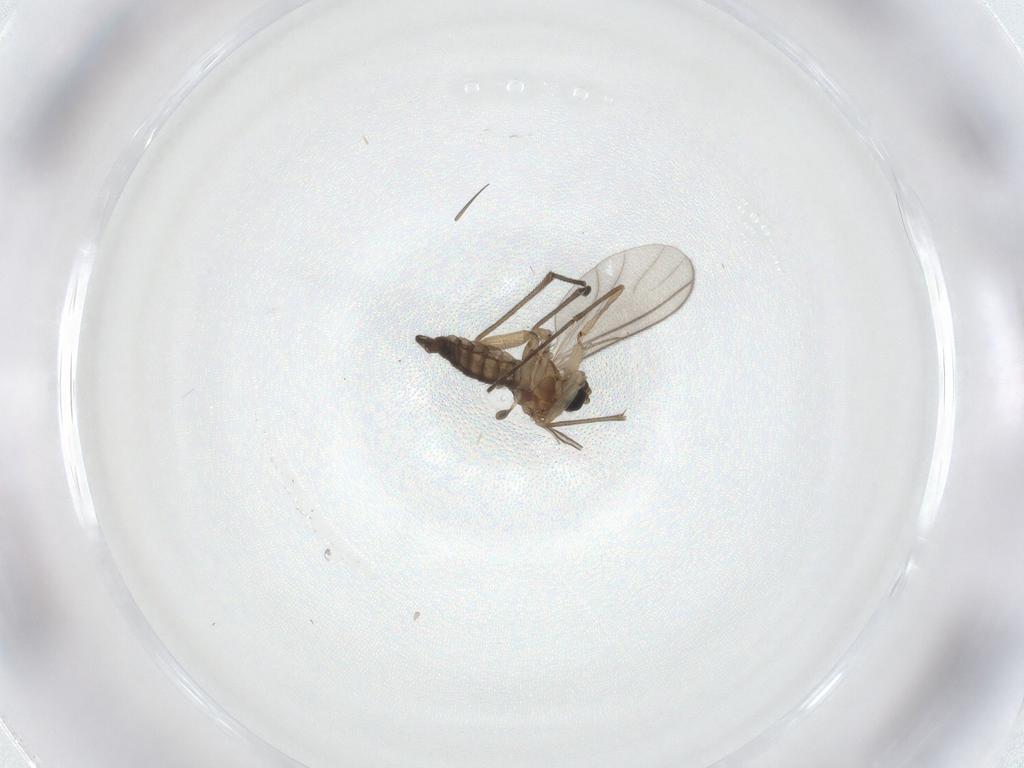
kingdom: Animalia
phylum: Arthropoda
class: Insecta
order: Diptera
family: Sciaridae
